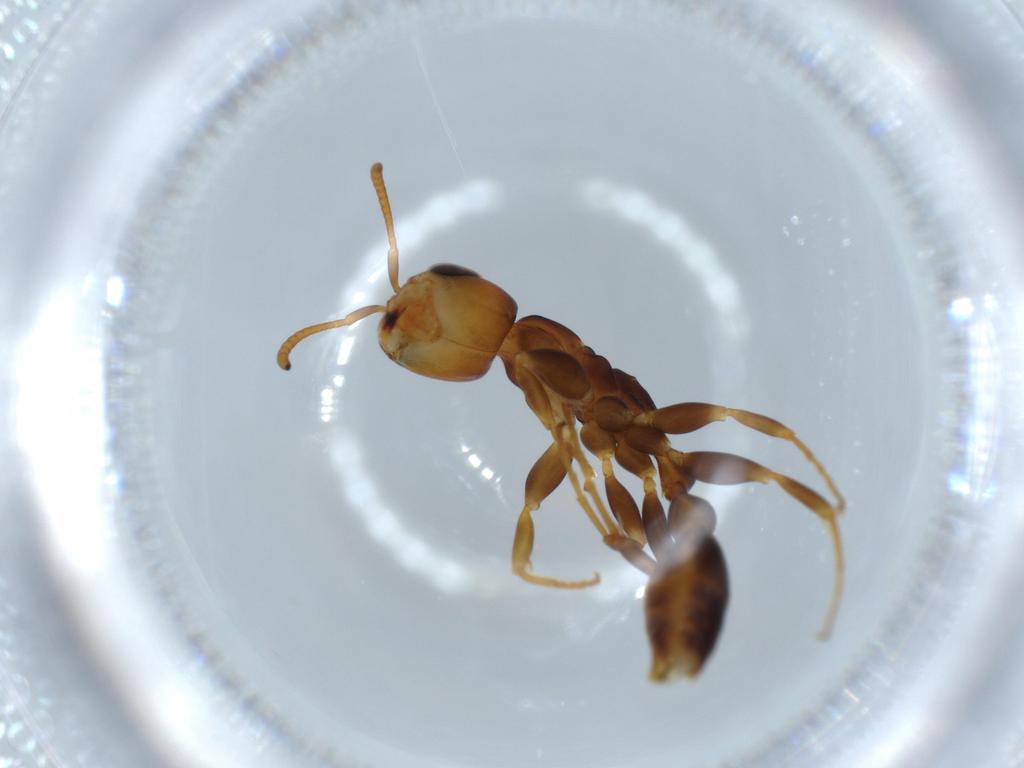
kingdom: Animalia
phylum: Arthropoda
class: Insecta
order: Hymenoptera
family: Formicidae
